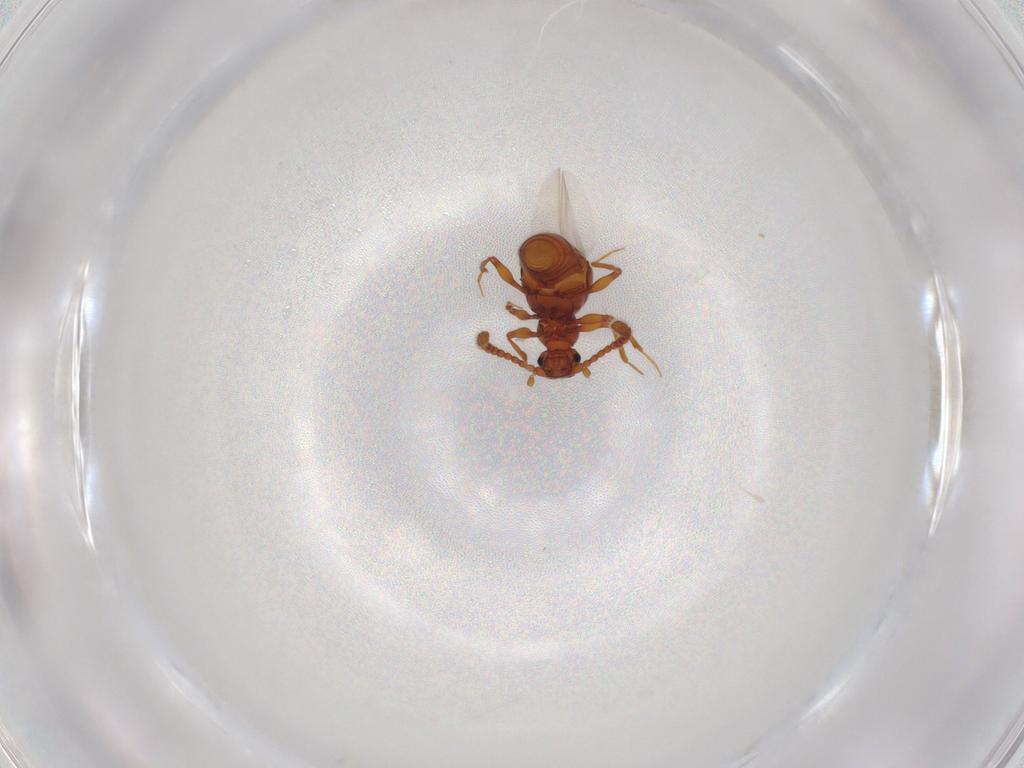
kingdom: Animalia
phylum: Arthropoda
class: Insecta
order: Coleoptera
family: Staphylinidae
